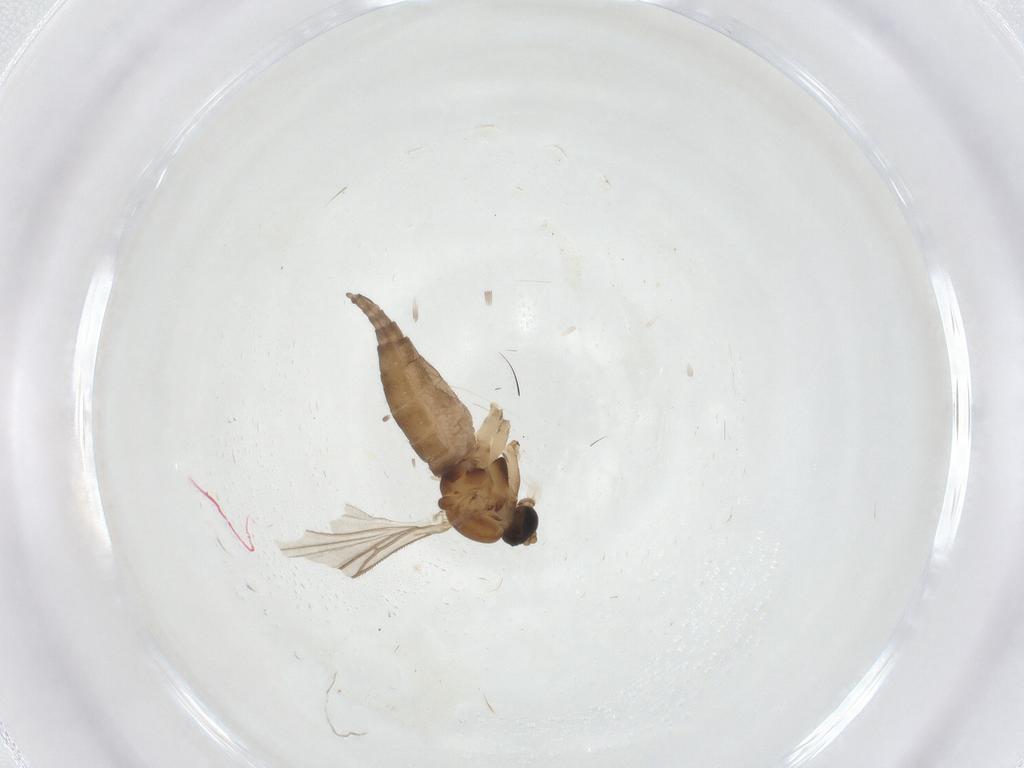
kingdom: Animalia
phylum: Arthropoda
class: Insecta
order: Diptera
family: Sciaridae
